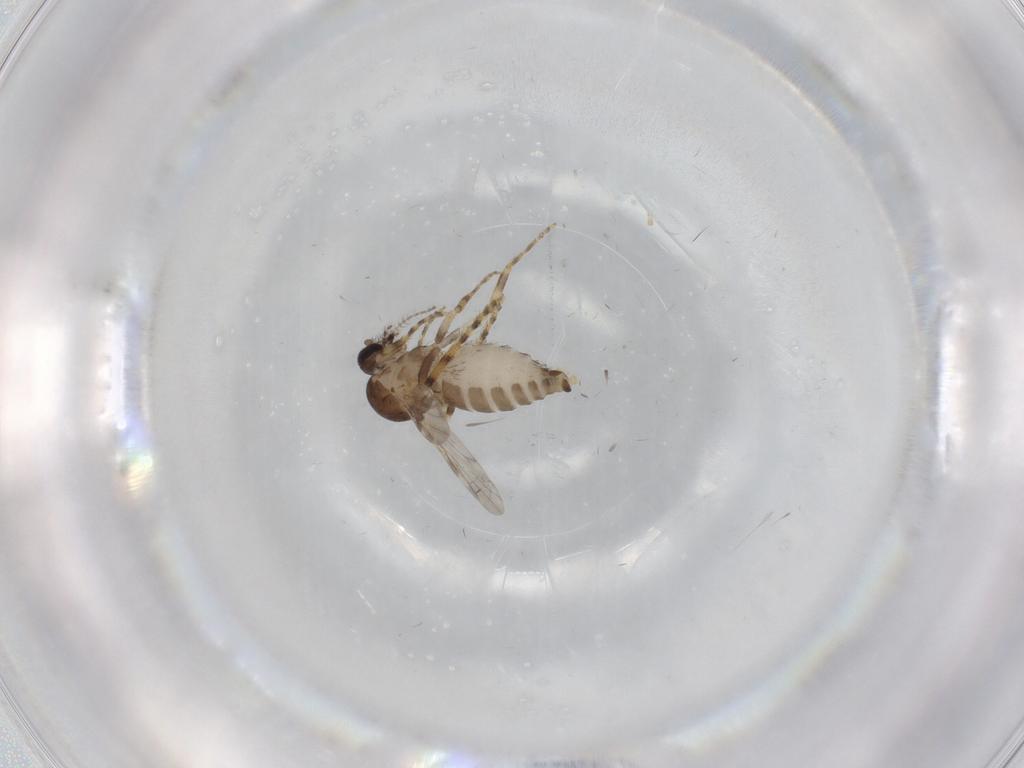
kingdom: Animalia
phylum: Arthropoda
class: Insecta
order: Diptera
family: Ceratopogonidae
